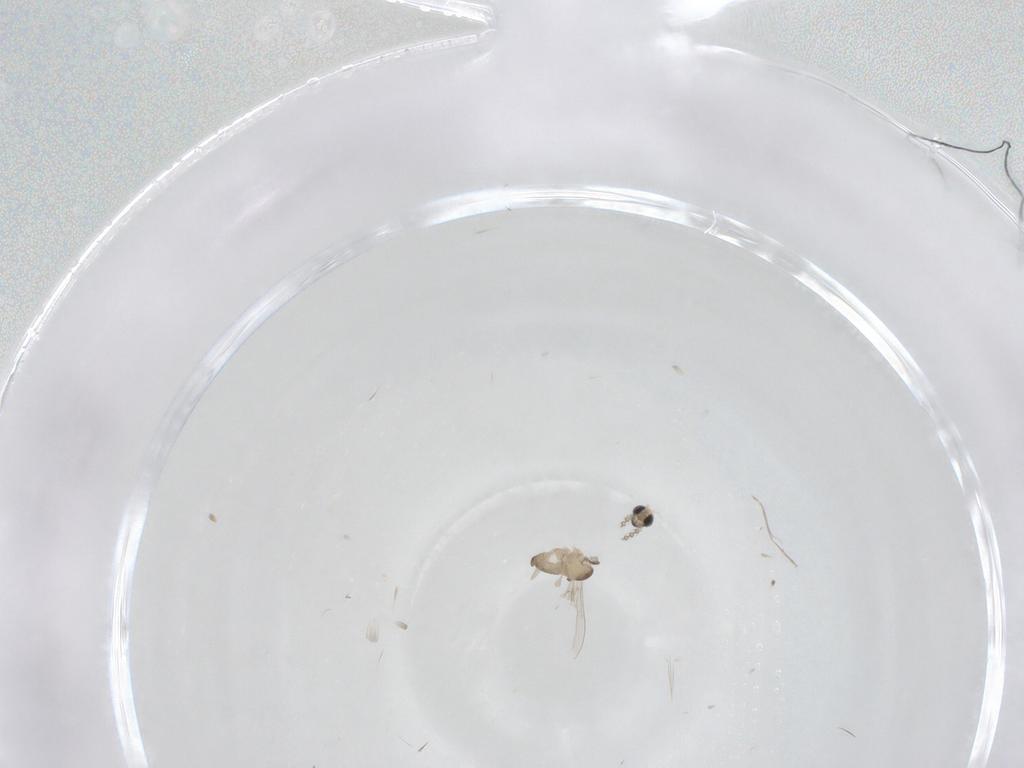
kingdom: Animalia
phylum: Arthropoda
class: Insecta
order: Diptera
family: Cecidomyiidae
